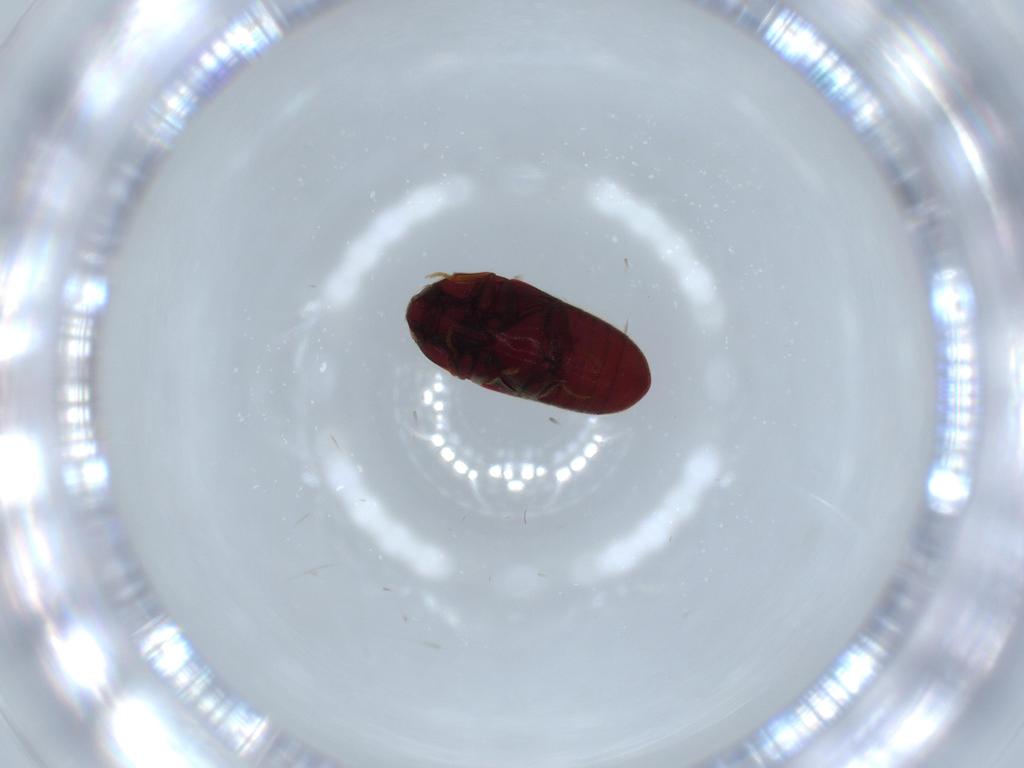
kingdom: Animalia
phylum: Arthropoda
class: Insecta
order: Coleoptera
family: Throscidae
